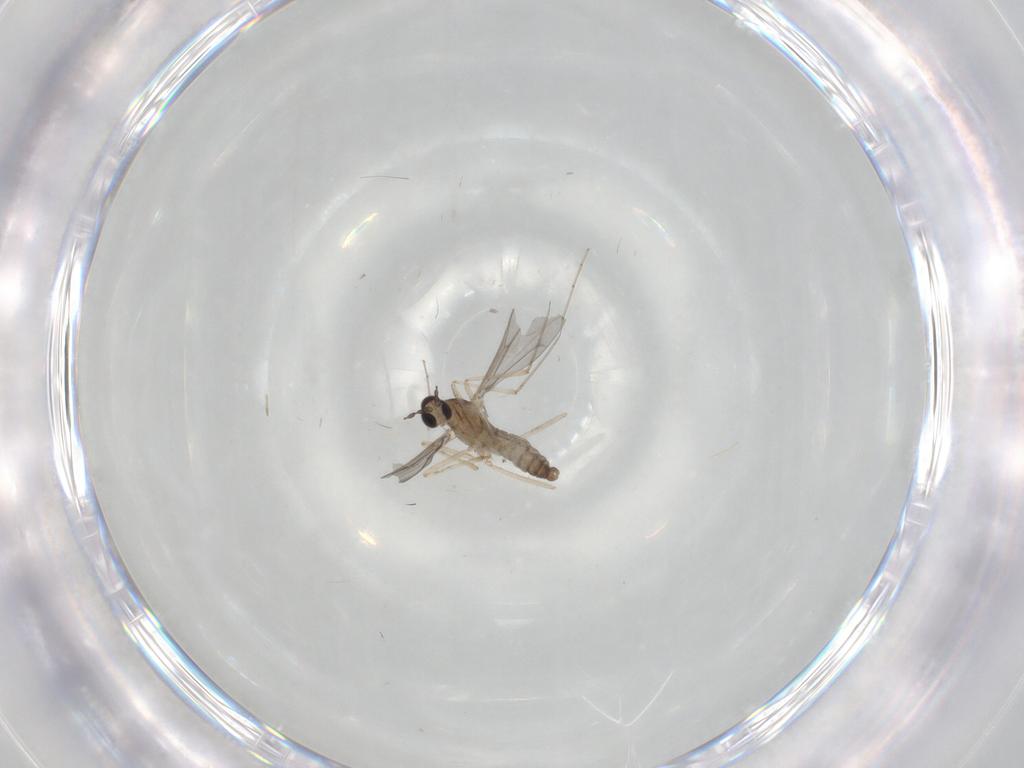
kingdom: Animalia
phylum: Arthropoda
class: Insecta
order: Diptera
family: Cecidomyiidae
